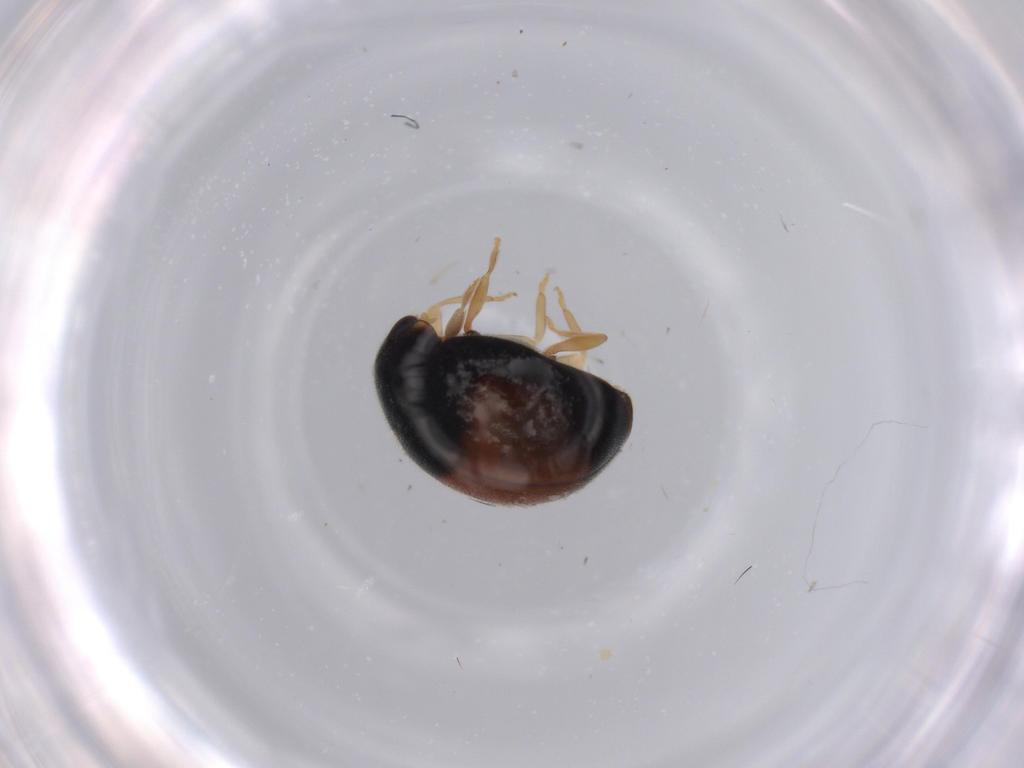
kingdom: Animalia
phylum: Arthropoda
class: Insecta
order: Coleoptera
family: Coccinellidae
